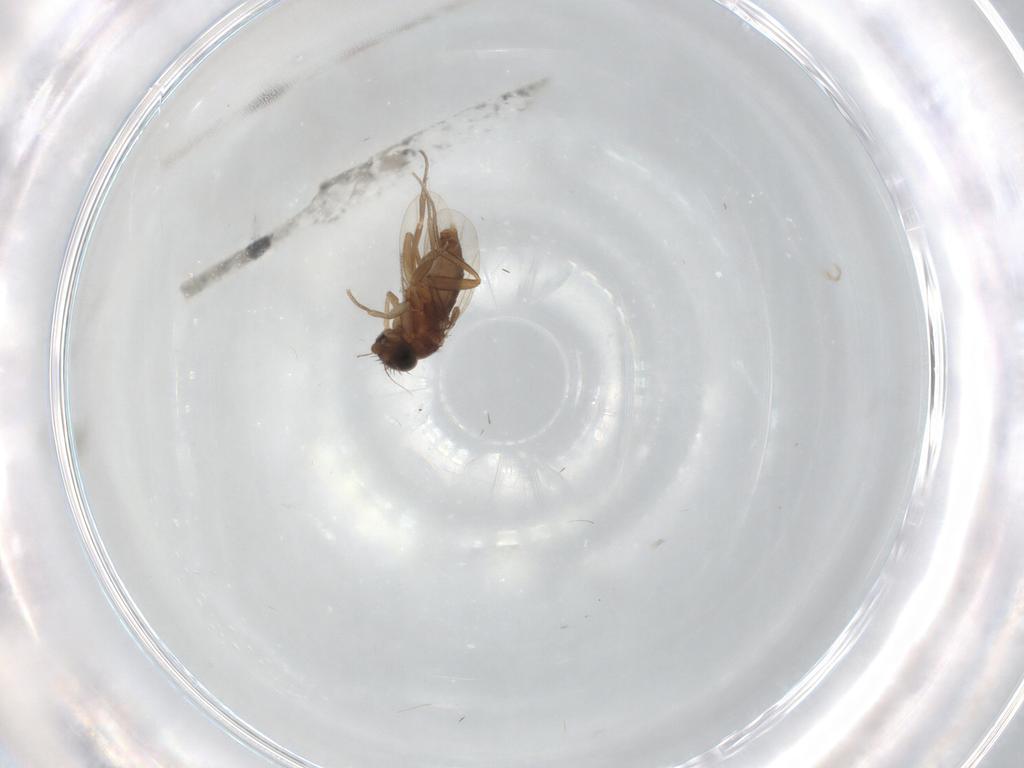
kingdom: Animalia
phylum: Arthropoda
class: Insecta
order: Diptera
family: Phoridae
